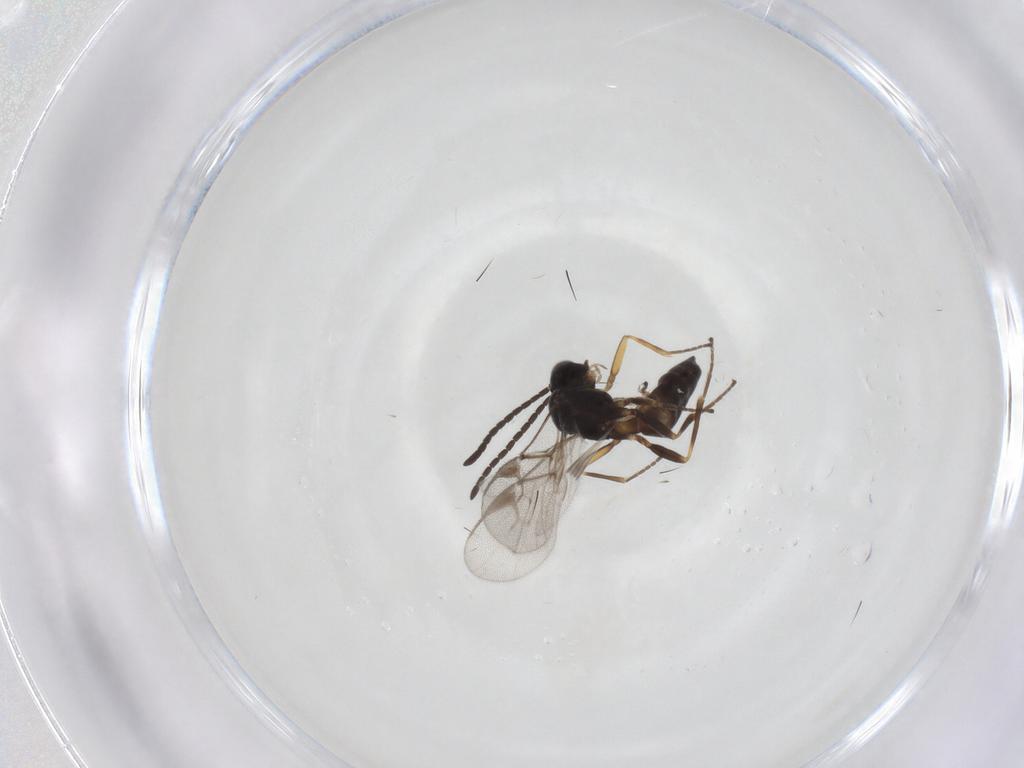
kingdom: Animalia
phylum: Arthropoda
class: Insecta
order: Hymenoptera
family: Braconidae
